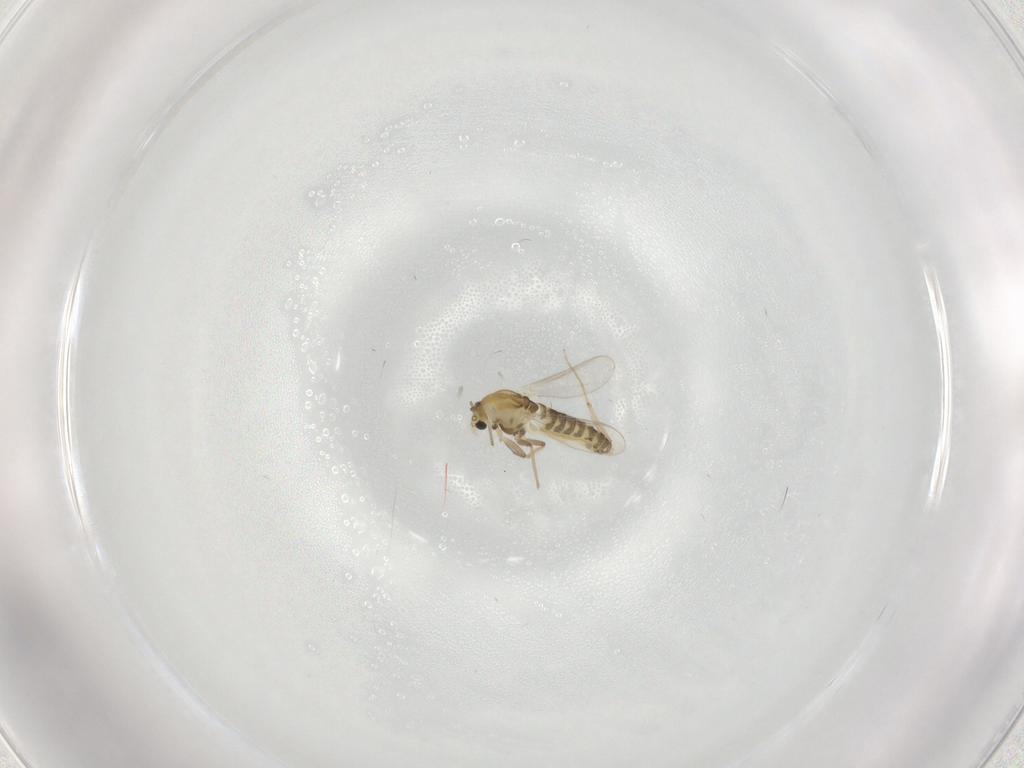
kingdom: Animalia
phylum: Arthropoda
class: Insecta
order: Diptera
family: Chironomidae
